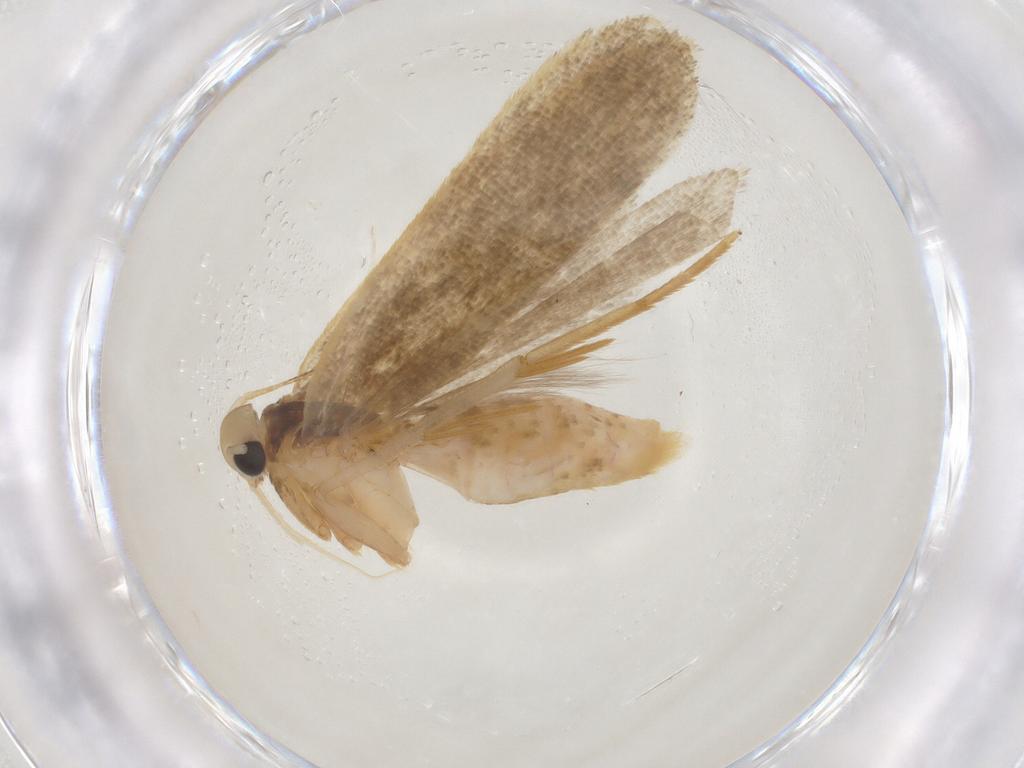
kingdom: Animalia
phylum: Arthropoda
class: Insecta
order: Lepidoptera
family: Gelechiidae
